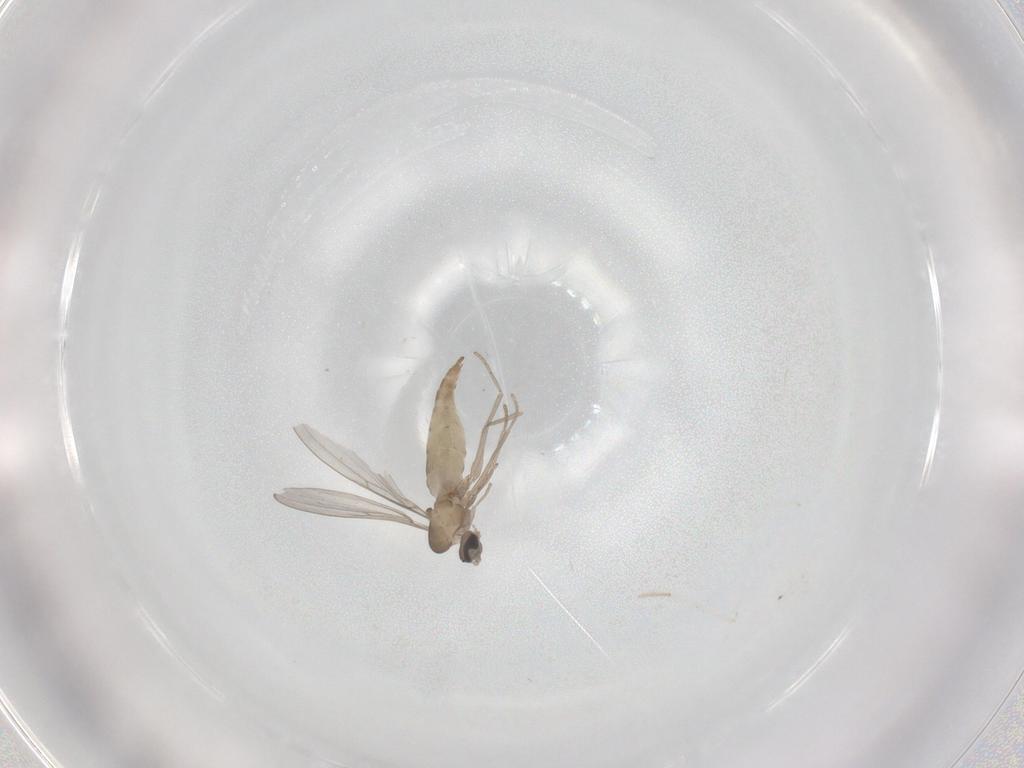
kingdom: Animalia
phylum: Arthropoda
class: Insecta
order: Diptera
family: Cecidomyiidae
